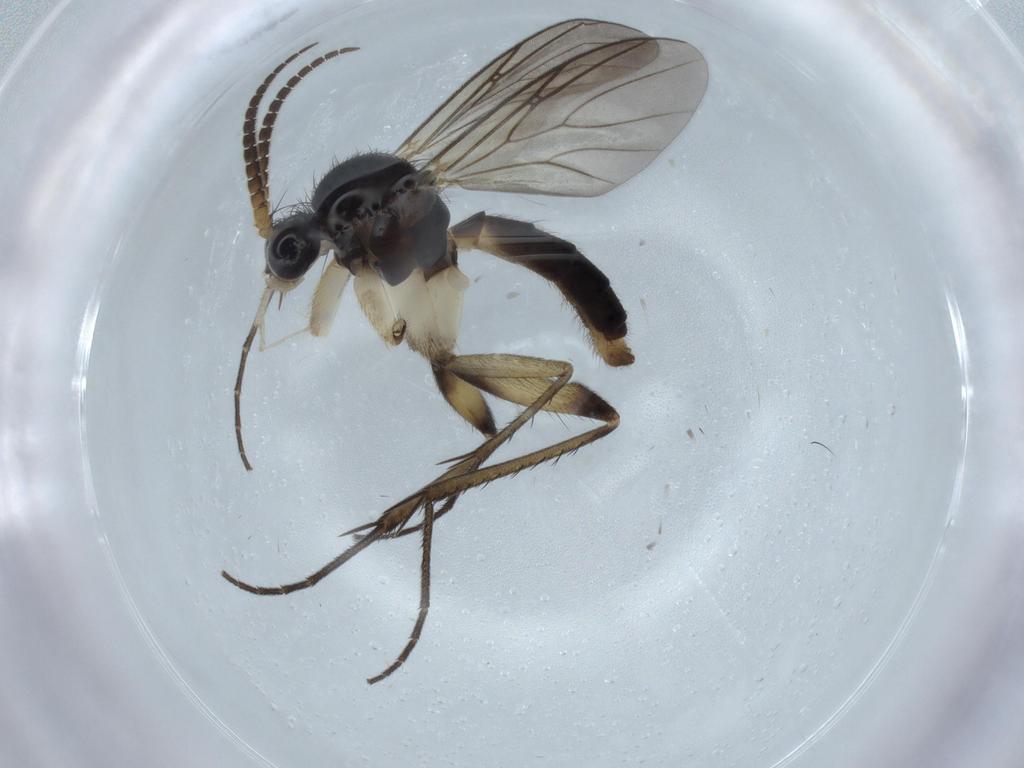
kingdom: Animalia
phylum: Arthropoda
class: Insecta
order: Diptera
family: Mycetophilidae
